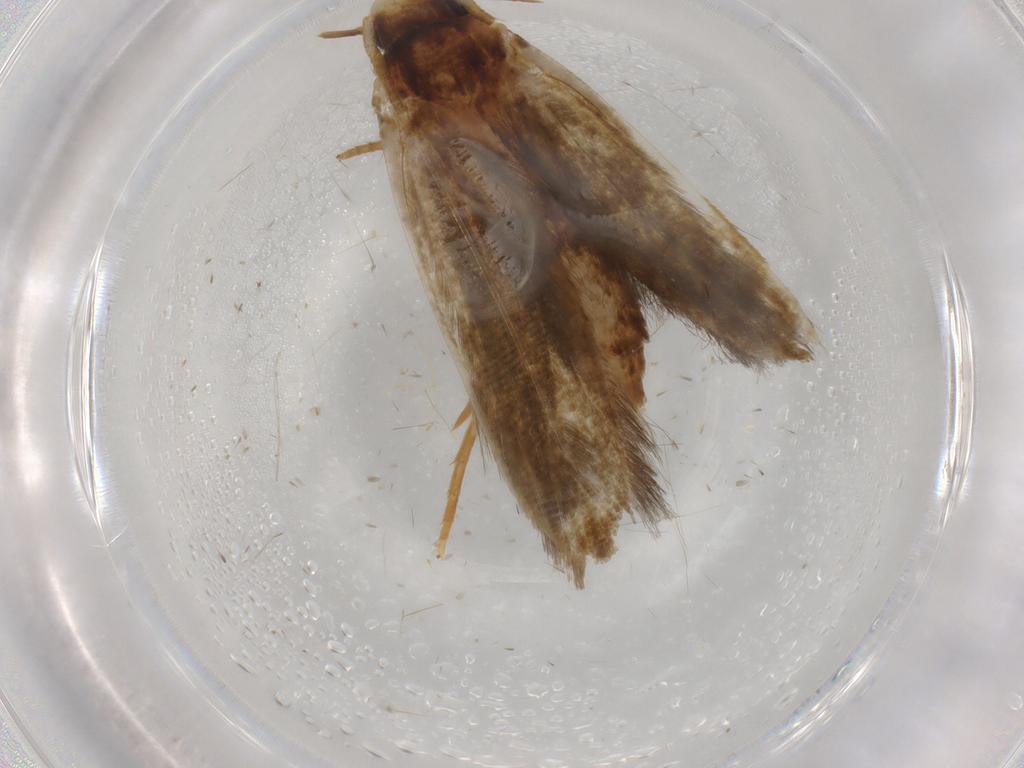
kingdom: Animalia
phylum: Arthropoda
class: Insecta
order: Lepidoptera
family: Tineidae
